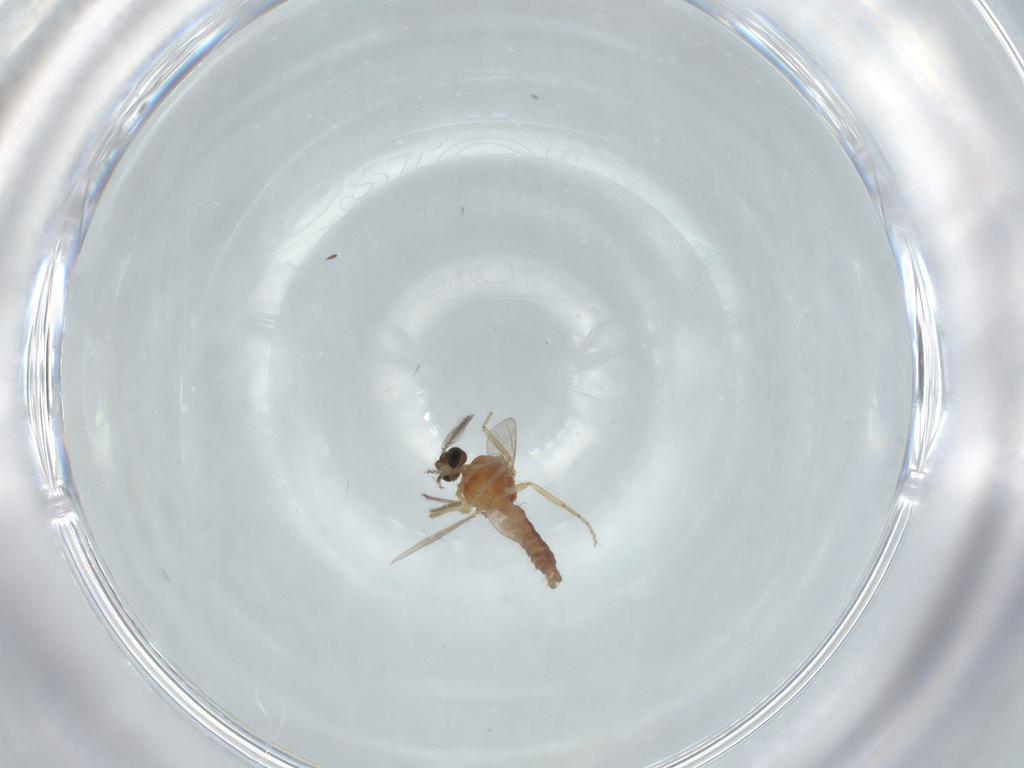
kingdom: Animalia
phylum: Arthropoda
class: Insecta
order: Diptera
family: Ceratopogonidae
